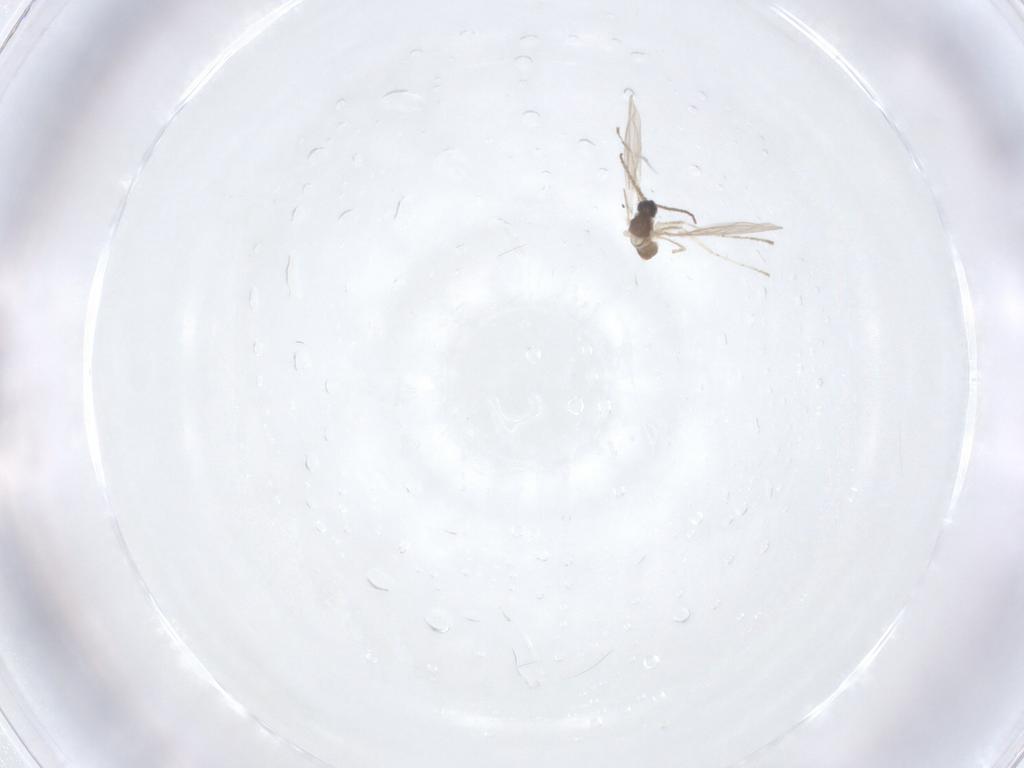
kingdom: Animalia
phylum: Arthropoda
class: Insecta
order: Diptera
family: Cecidomyiidae
